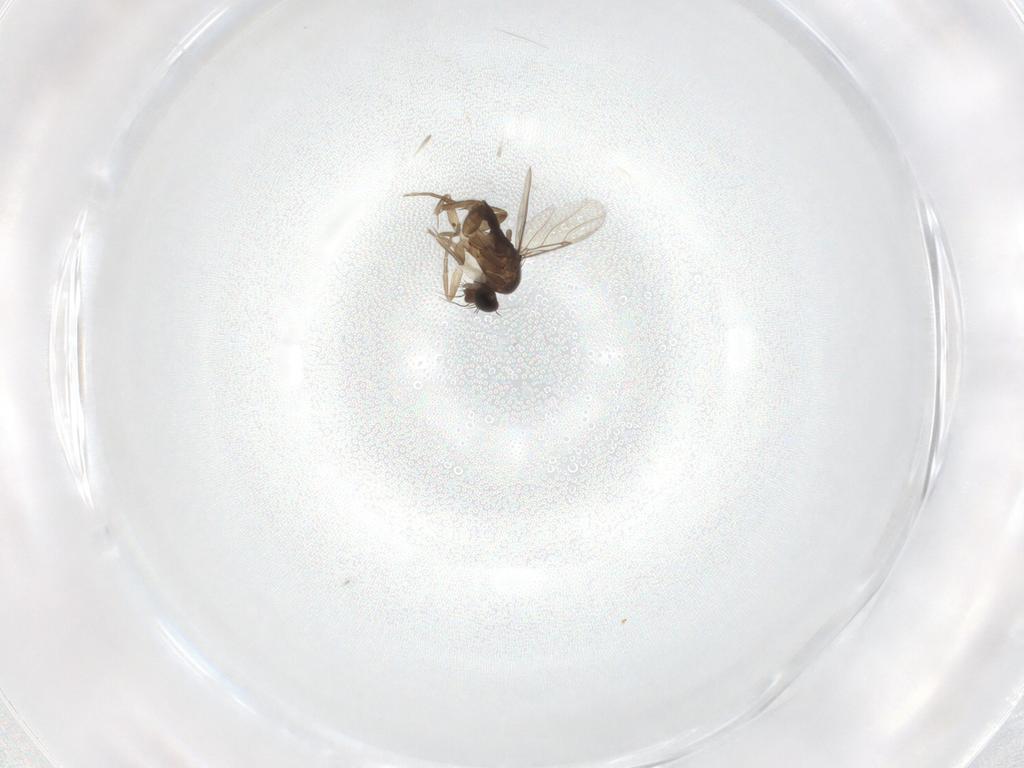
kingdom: Animalia
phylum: Arthropoda
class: Insecta
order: Diptera
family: Phoridae
